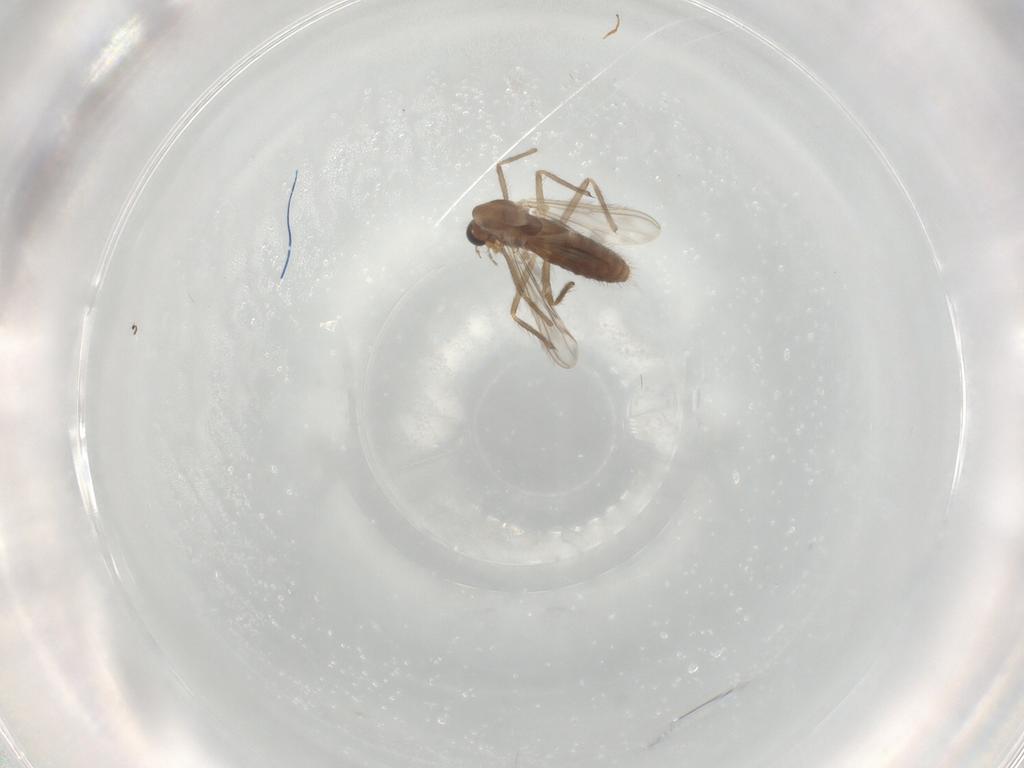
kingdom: Animalia
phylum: Arthropoda
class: Insecta
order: Diptera
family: Chironomidae
